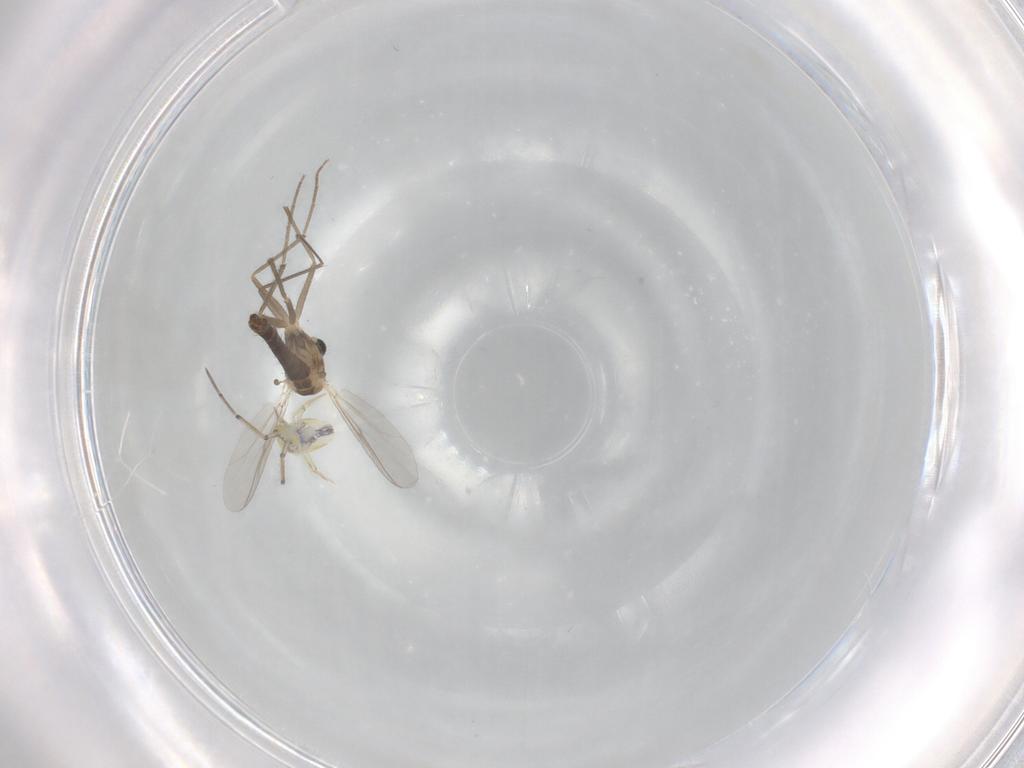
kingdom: Animalia
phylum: Arthropoda
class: Insecta
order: Diptera
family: Chironomidae
